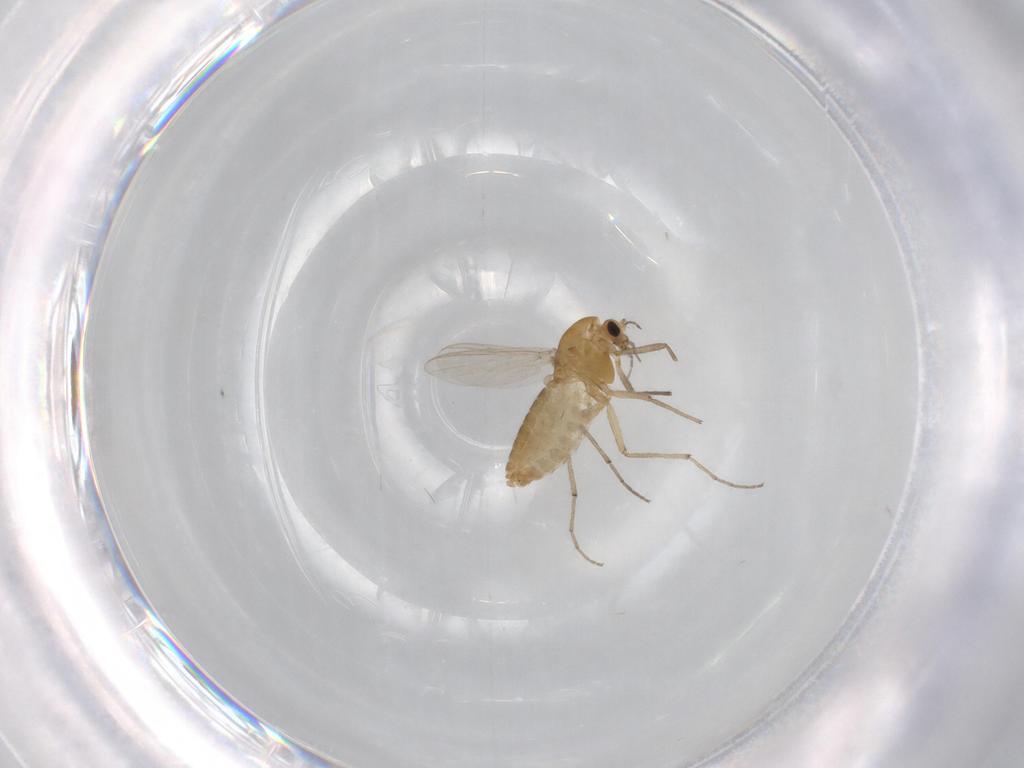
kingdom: Animalia
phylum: Arthropoda
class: Insecta
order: Diptera
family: Chironomidae
